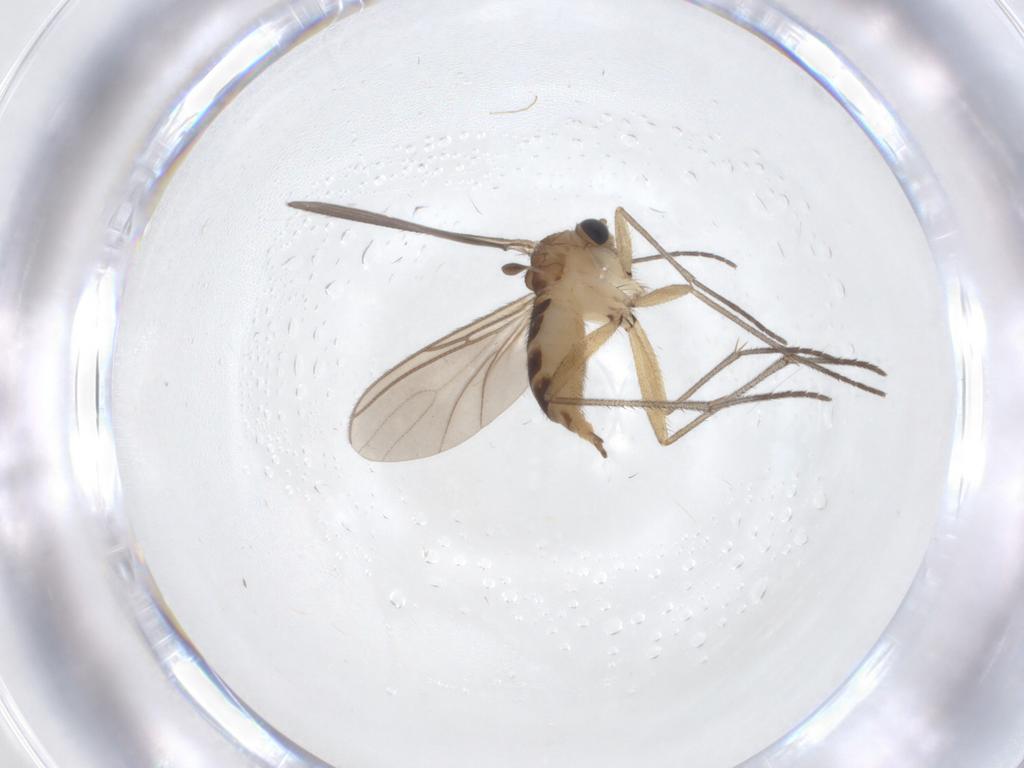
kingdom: Animalia
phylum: Arthropoda
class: Insecta
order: Diptera
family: Sciaridae
